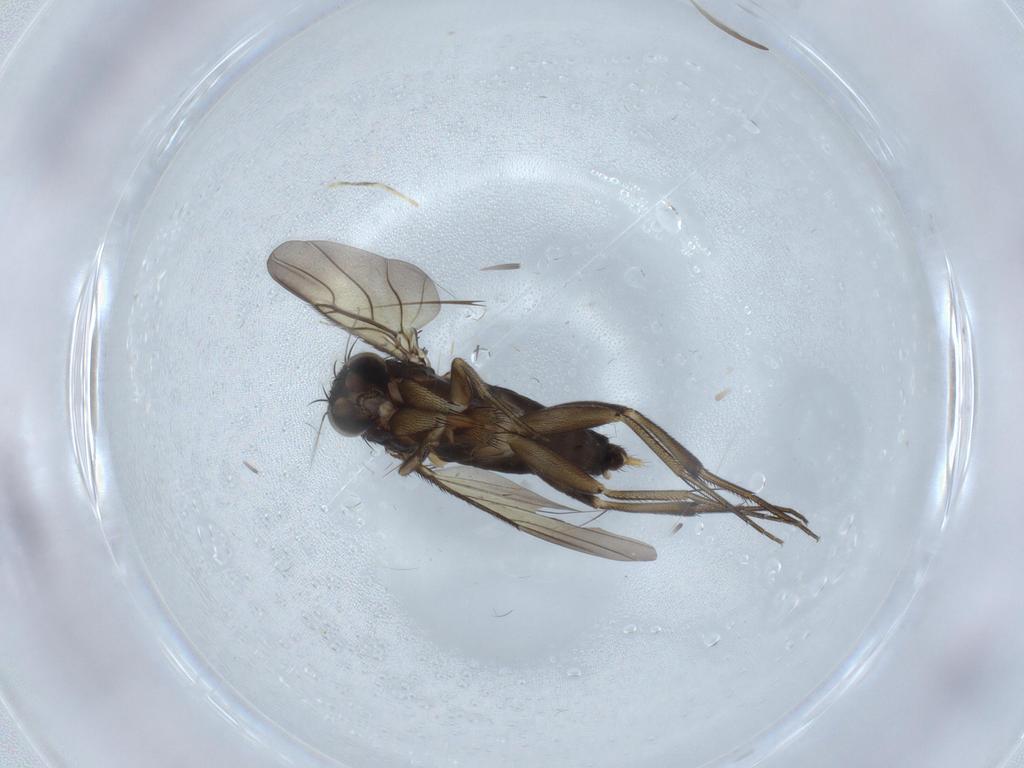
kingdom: Animalia
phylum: Arthropoda
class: Insecta
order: Diptera
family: Phoridae
